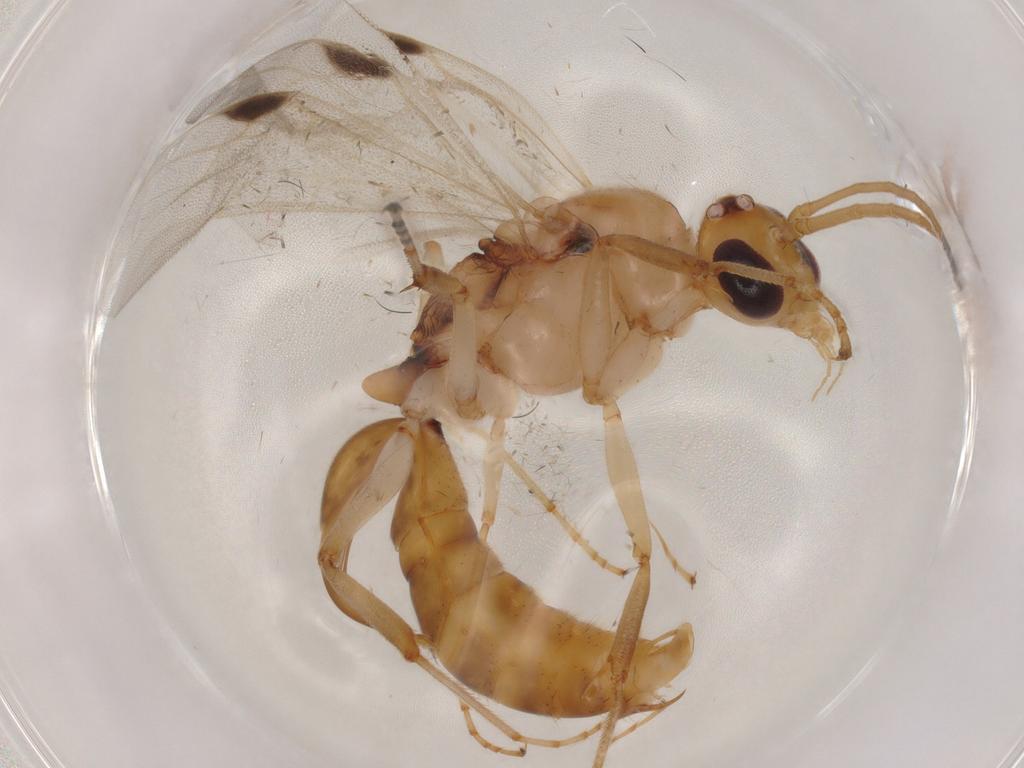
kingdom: Animalia
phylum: Arthropoda
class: Insecta
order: Hymenoptera
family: Formicidae
